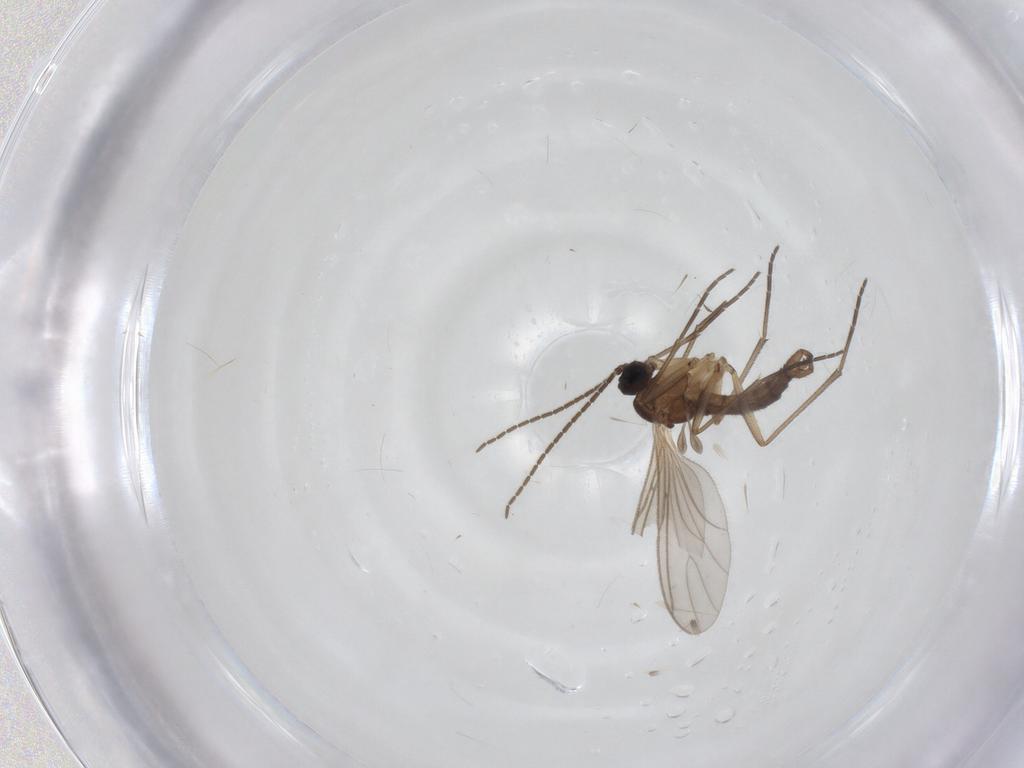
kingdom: Animalia
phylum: Arthropoda
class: Insecta
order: Diptera
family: Sciaridae
